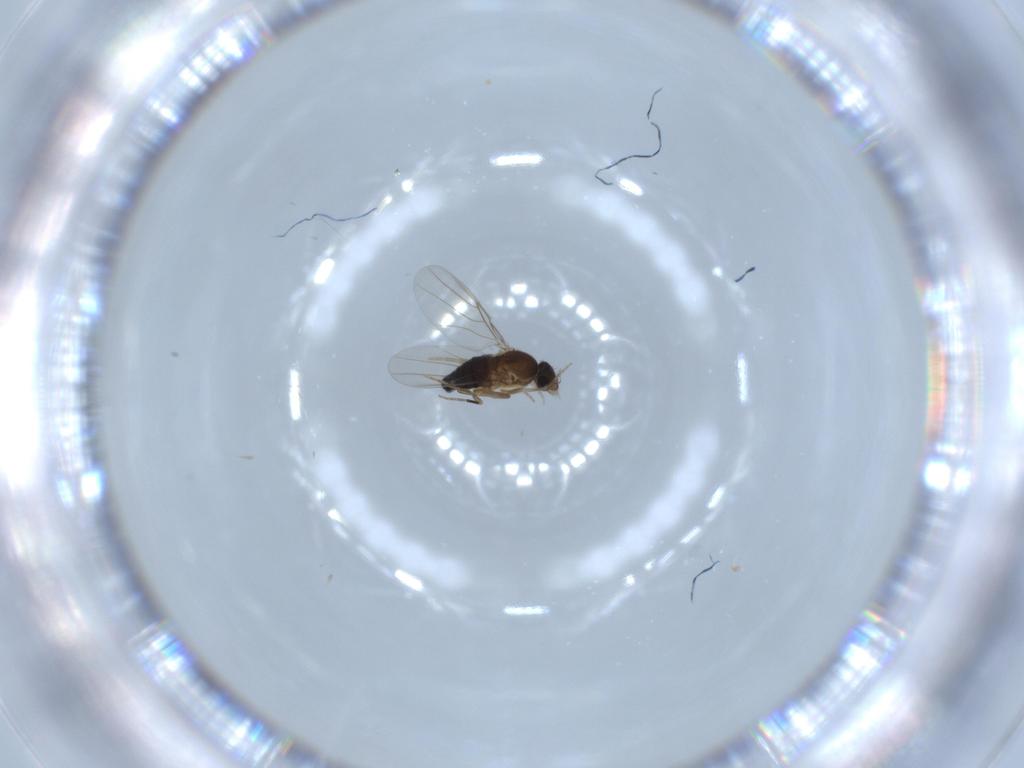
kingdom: Animalia
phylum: Arthropoda
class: Insecta
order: Diptera
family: Phoridae
